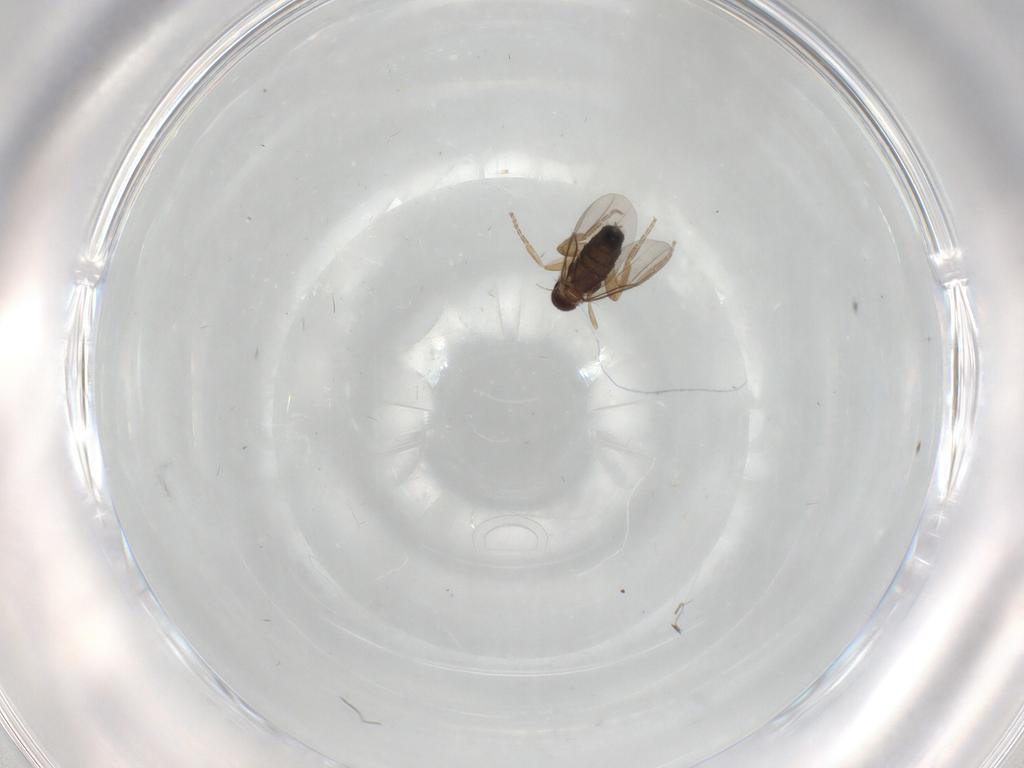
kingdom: Animalia
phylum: Arthropoda
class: Insecta
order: Diptera
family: Phoridae
